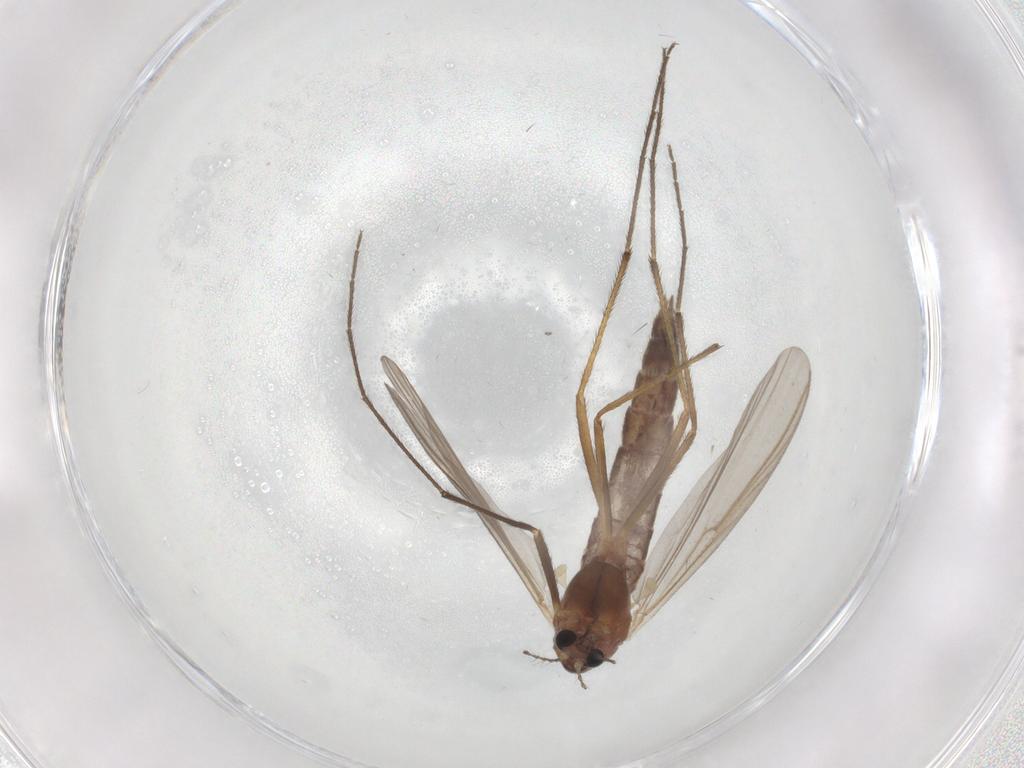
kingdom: Animalia
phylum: Arthropoda
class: Insecta
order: Diptera
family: Chironomidae
